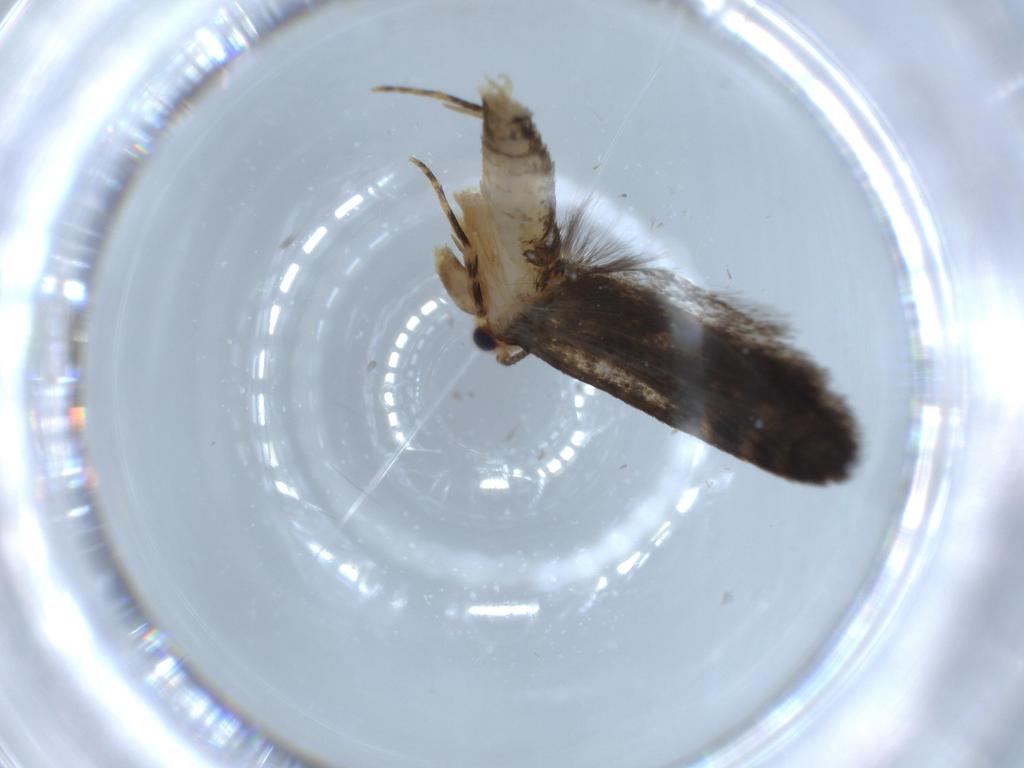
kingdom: Animalia
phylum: Arthropoda
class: Insecta
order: Lepidoptera
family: Tineidae
